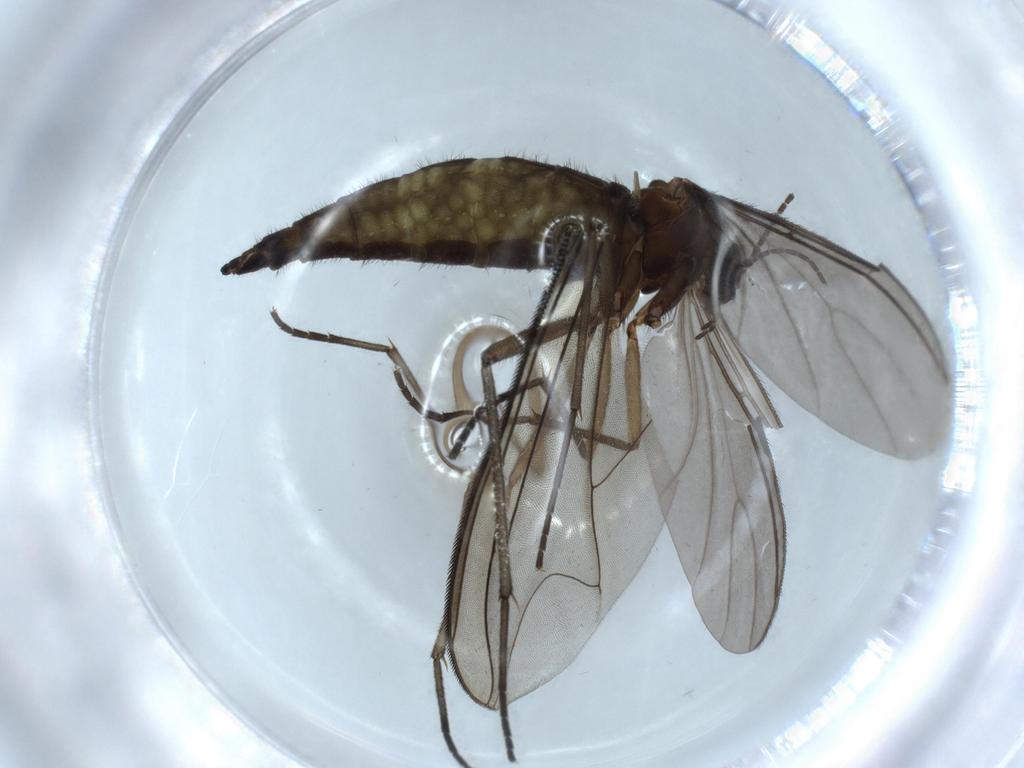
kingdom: Animalia
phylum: Arthropoda
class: Insecta
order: Diptera
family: Sciaridae
